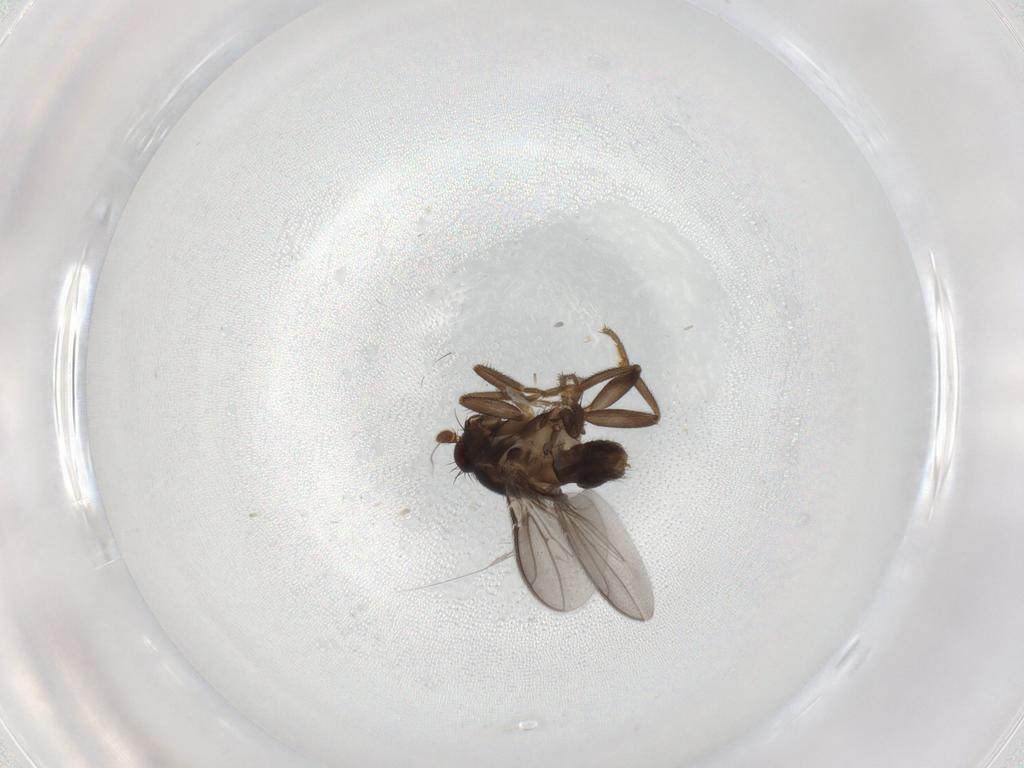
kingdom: Animalia
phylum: Arthropoda
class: Insecta
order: Diptera
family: Sphaeroceridae
